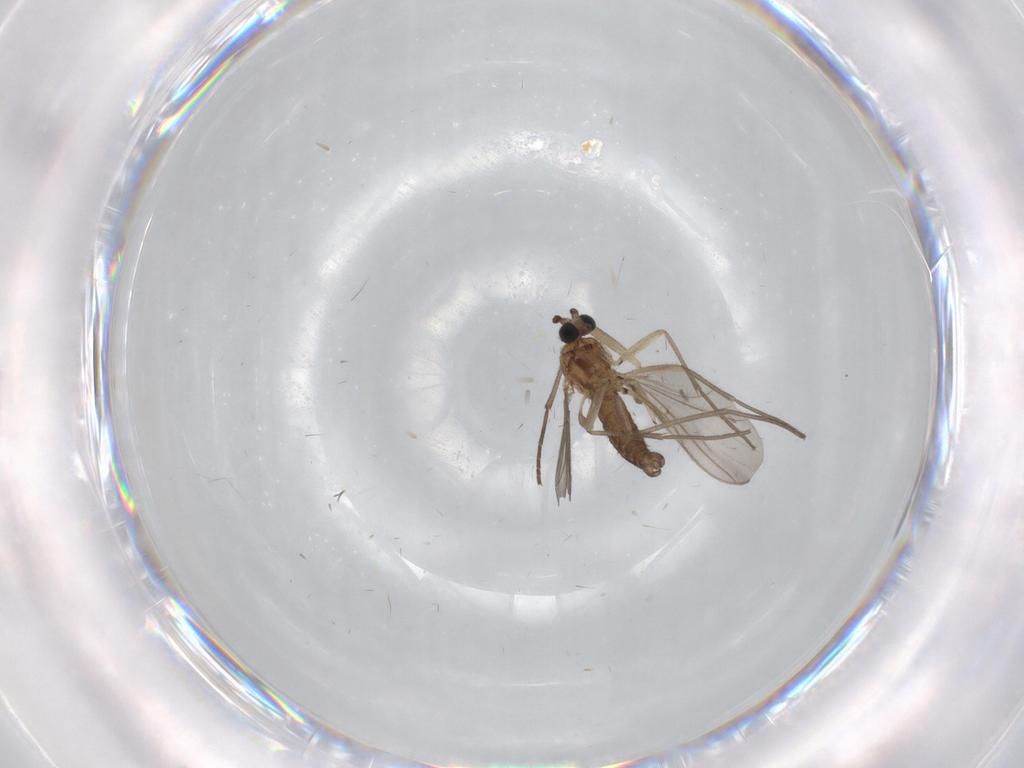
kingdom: Animalia
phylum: Arthropoda
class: Insecta
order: Diptera
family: Sciaridae
